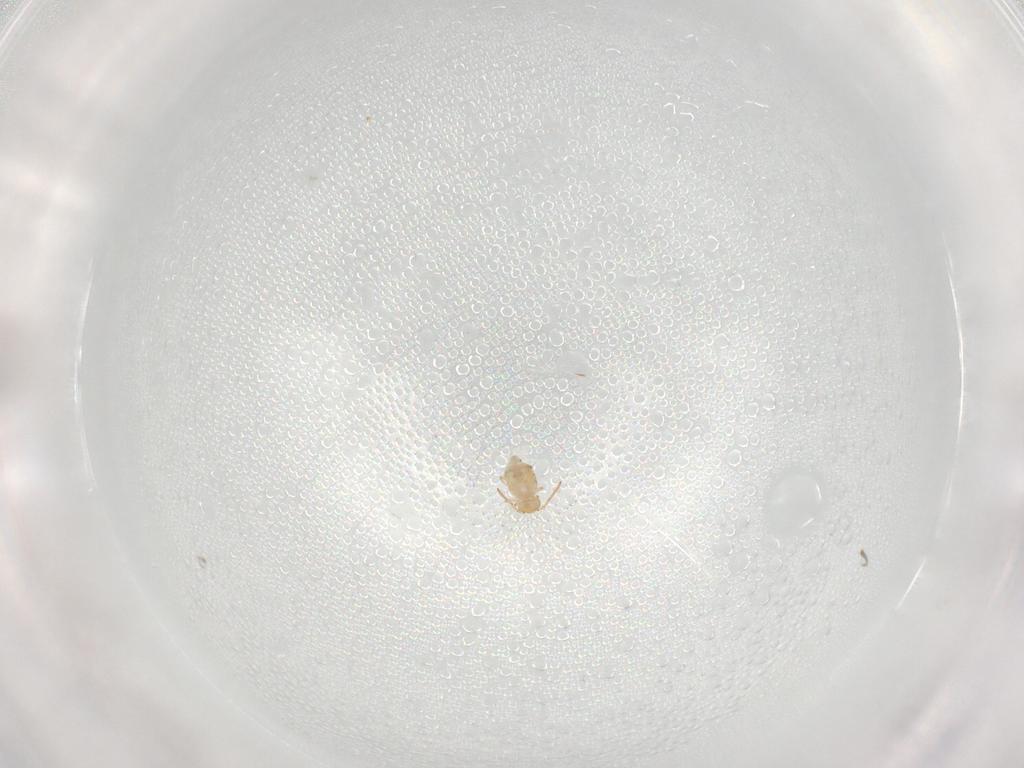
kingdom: Animalia
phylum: Arthropoda
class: Collembola
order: Symphypleona
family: Bourletiellidae
